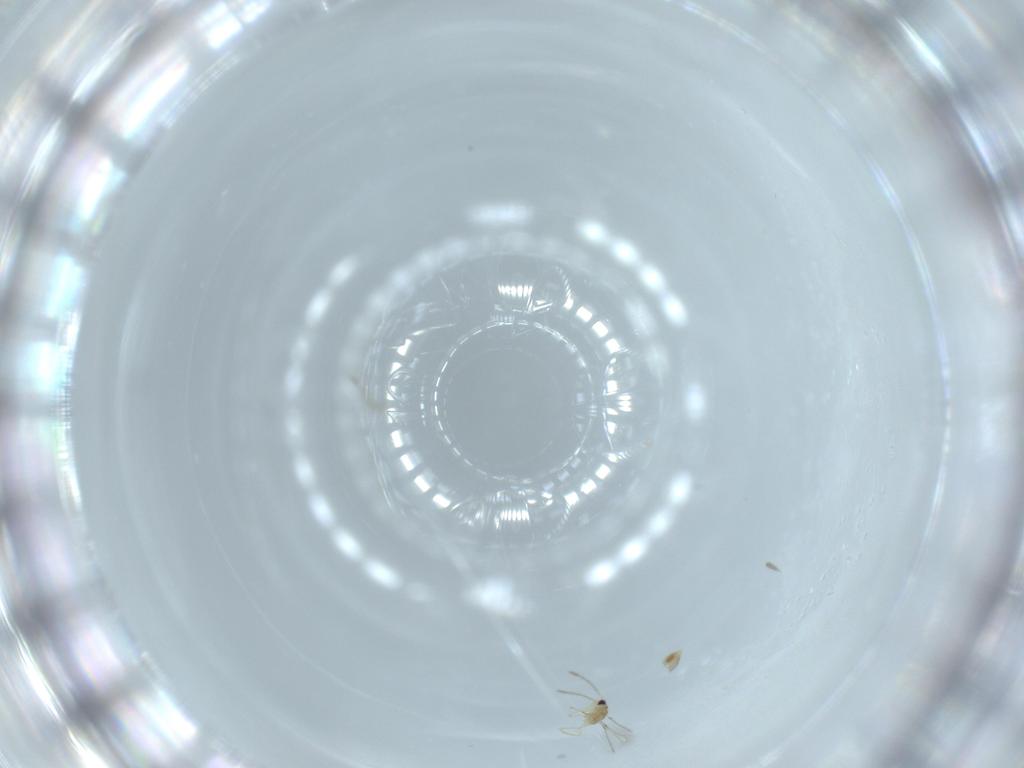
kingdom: Animalia
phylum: Arthropoda
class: Insecta
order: Hymenoptera
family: Mymaridae
